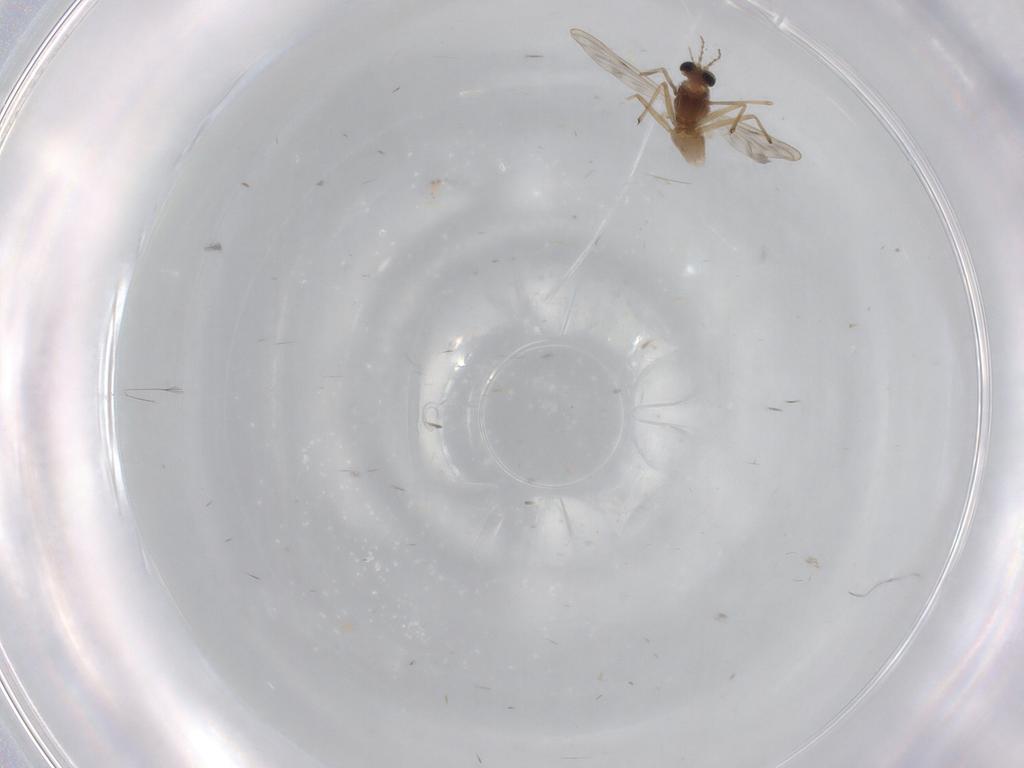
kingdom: Animalia
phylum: Arthropoda
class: Insecta
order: Diptera
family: Chironomidae
